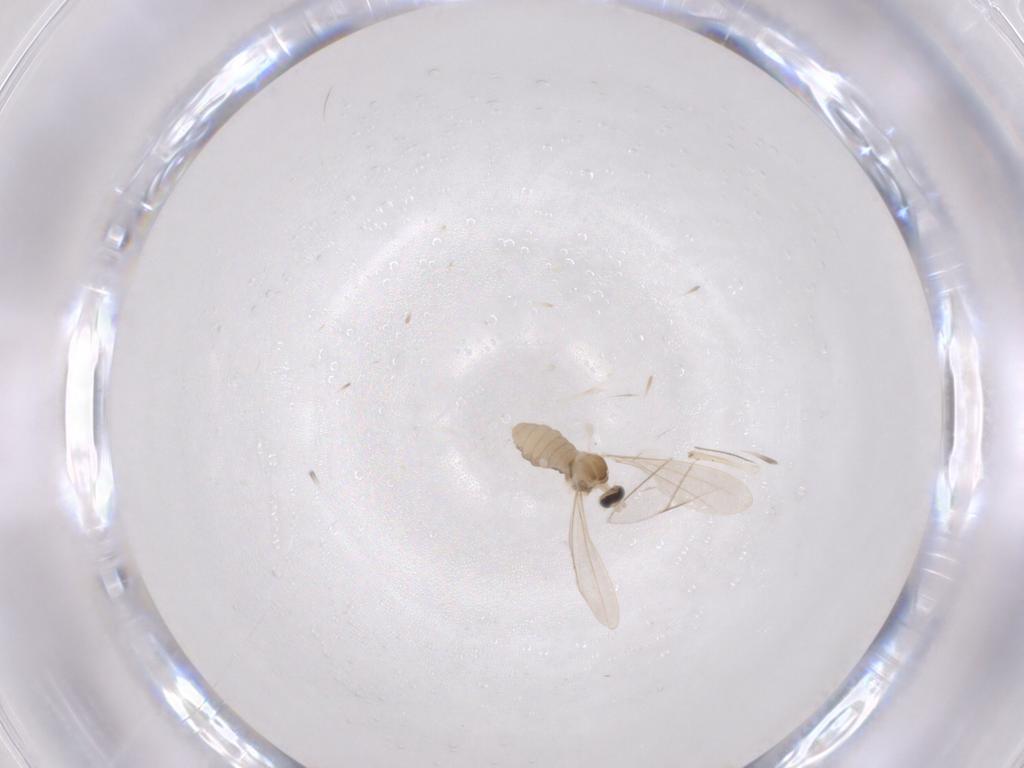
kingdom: Animalia
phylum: Arthropoda
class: Insecta
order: Diptera
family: Cecidomyiidae
